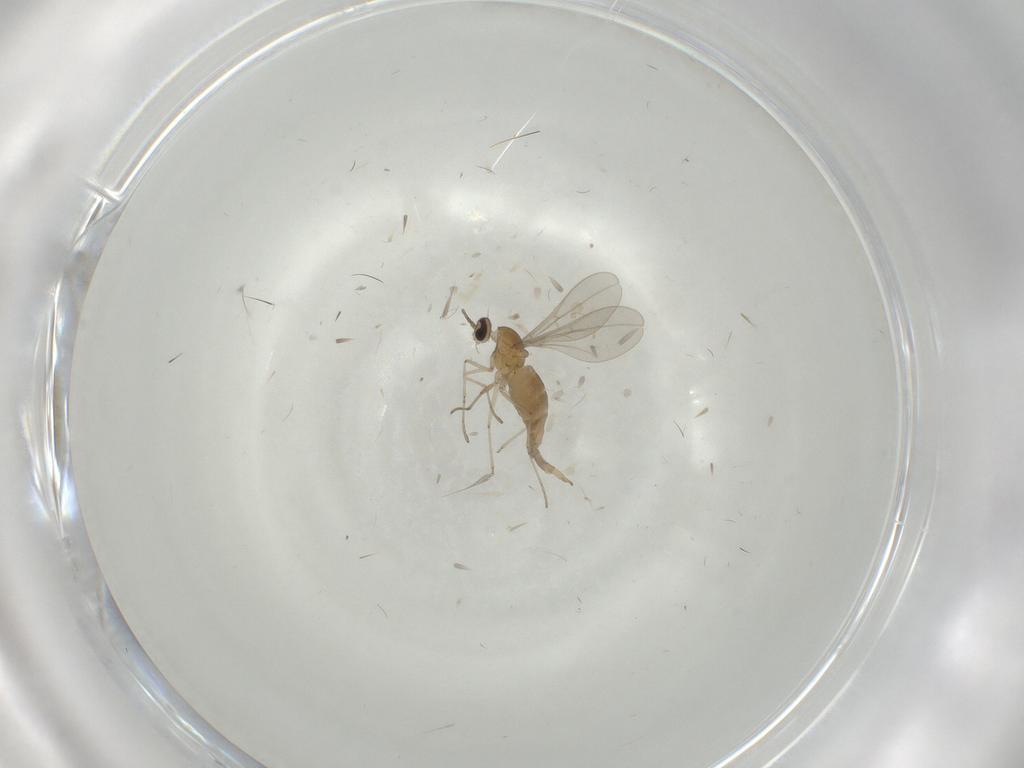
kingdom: Animalia
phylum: Arthropoda
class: Insecta
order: Diptera
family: Cecidomyiidae
